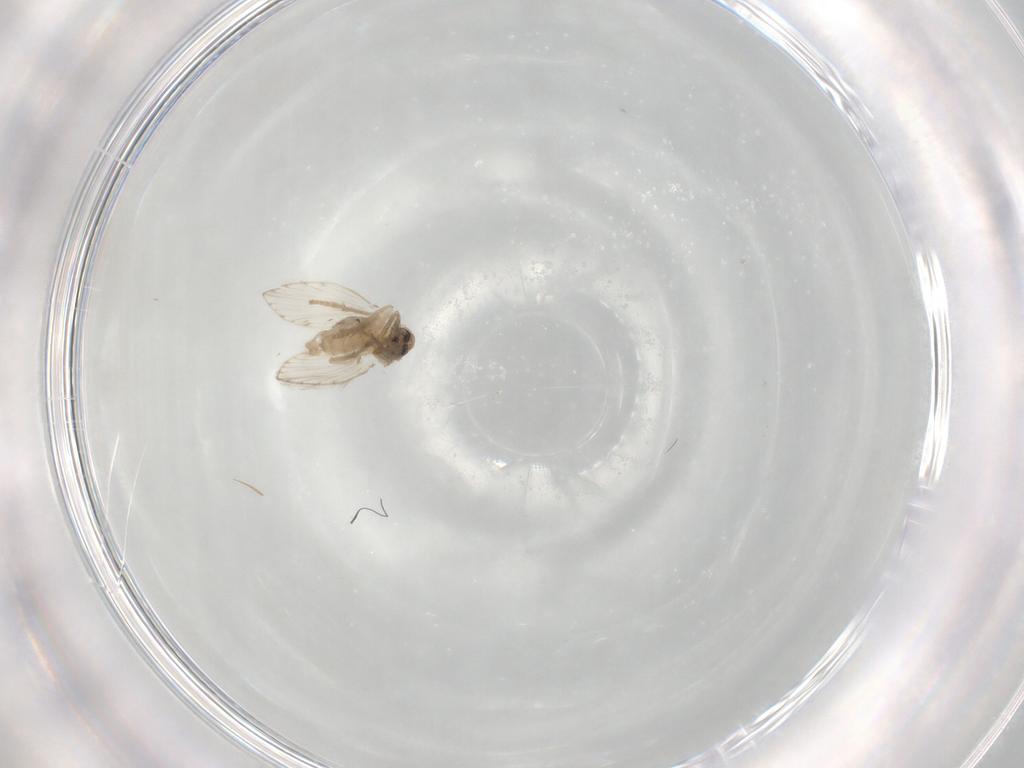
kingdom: Animalia
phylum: Arthropoda
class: Insecta
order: Diptera
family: Psychodidae
